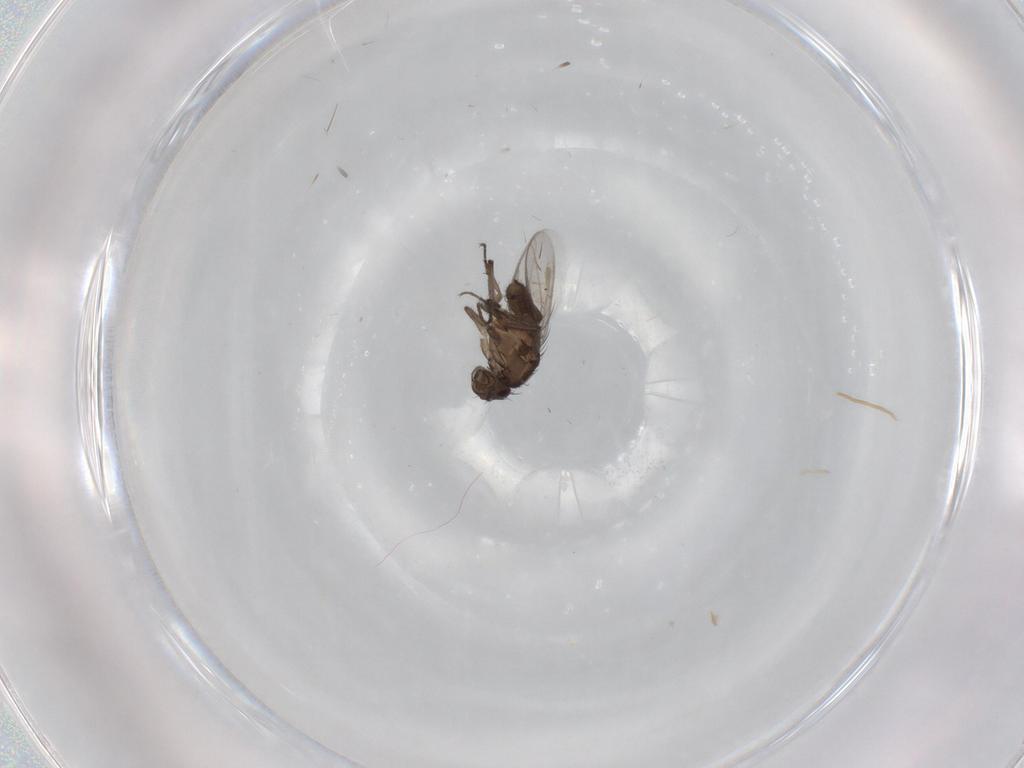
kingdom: Animalia
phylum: Arthropoda
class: Insecta
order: Diptera
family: Sphaeroceridae
